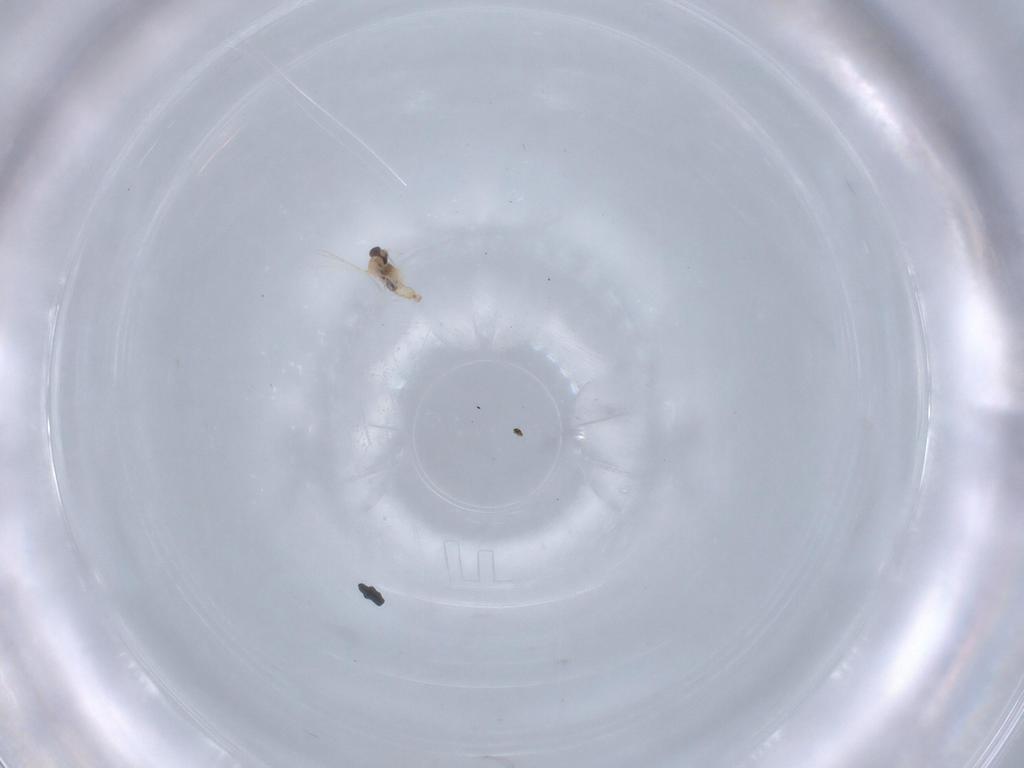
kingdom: Animalia
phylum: Arthropoda
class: Insecta
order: Diptera
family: Cecidomyiidae
